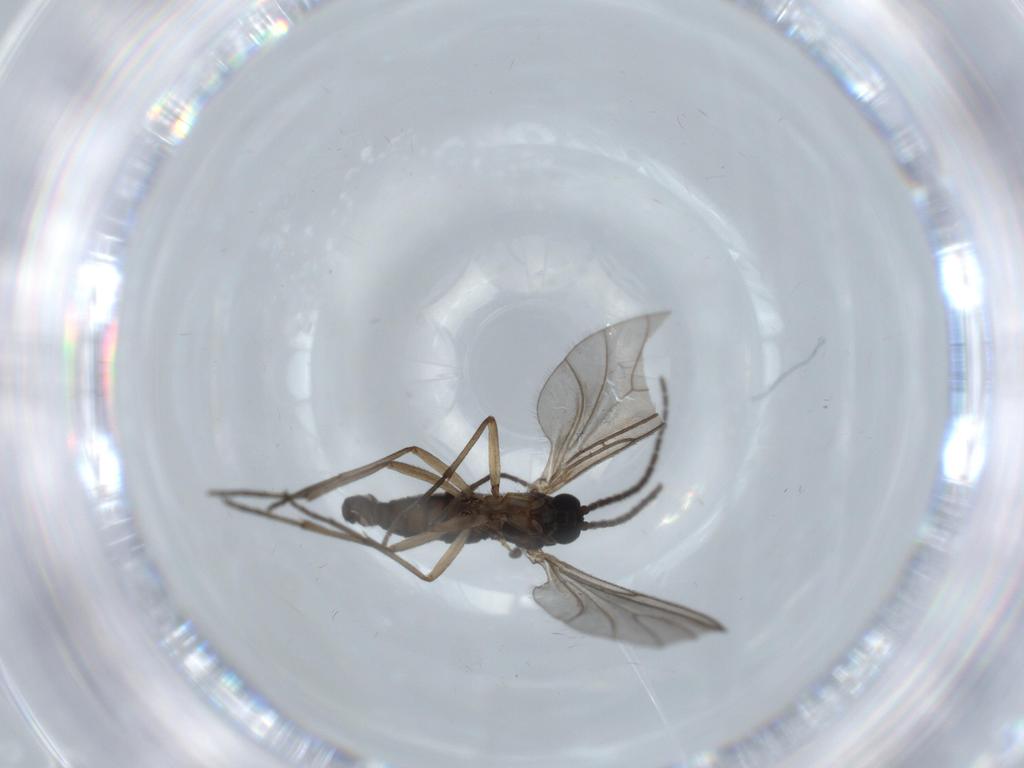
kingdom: Animalia
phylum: Arthropoda
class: Insecta
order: Diptera
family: Sciaridae
